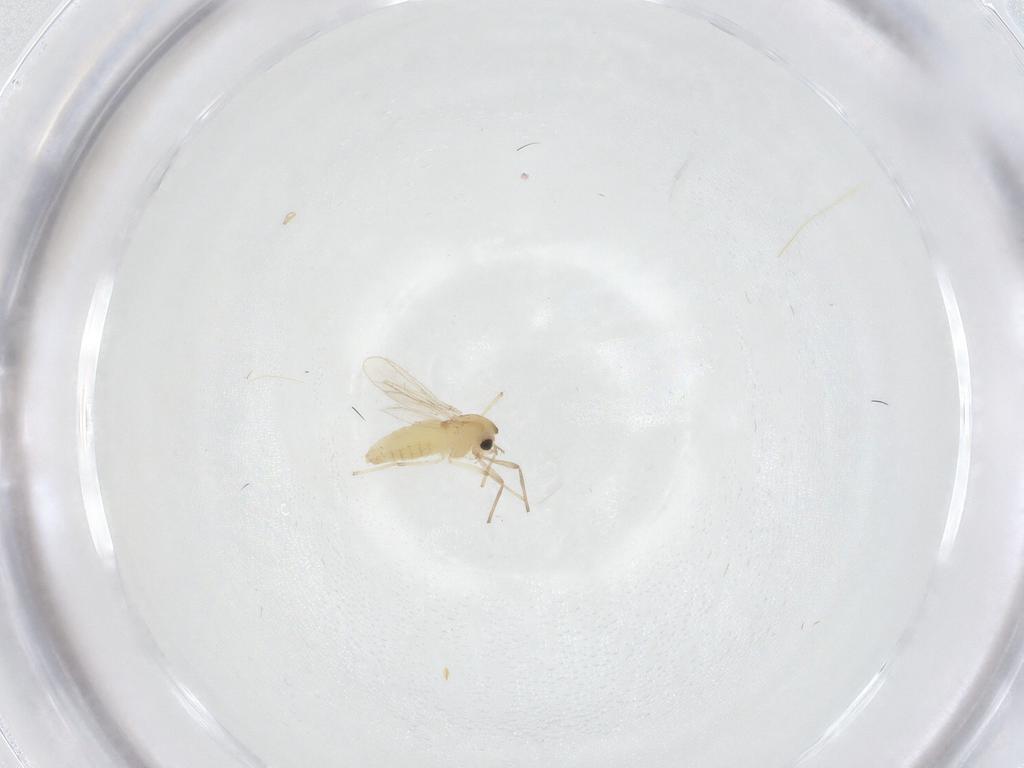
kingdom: Animalia
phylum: Arthropoda
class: Insecta
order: Diptera
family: Chironomidae
